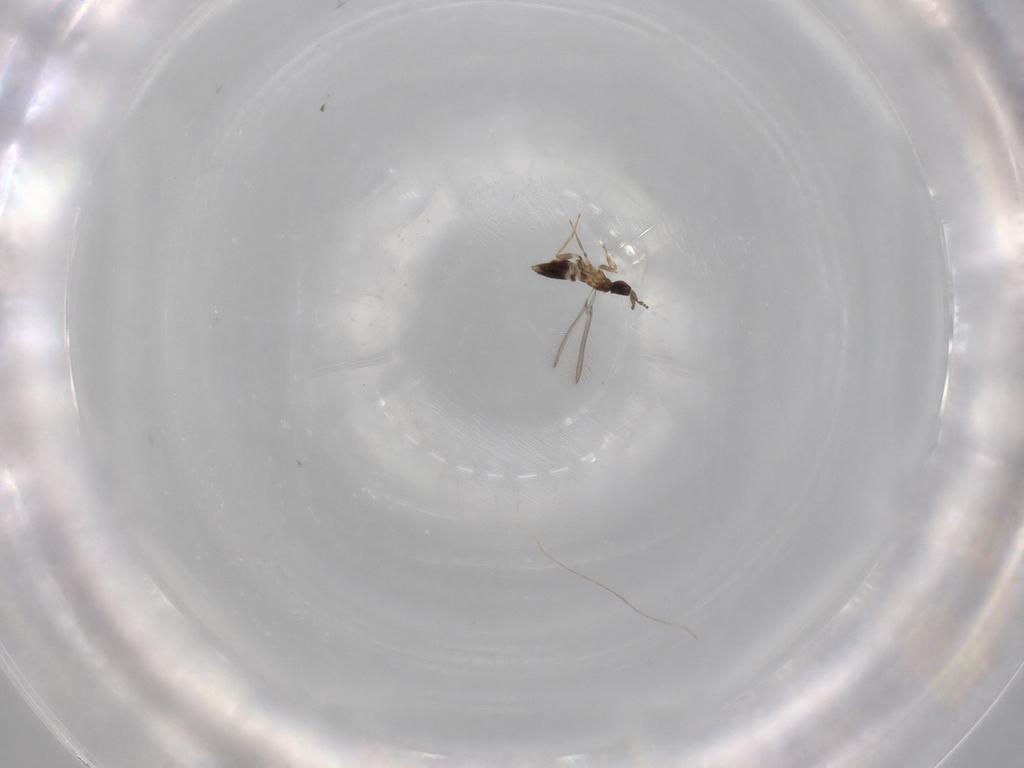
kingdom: Animalia
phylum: Arthropoda
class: Insecta
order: Hymenoptera
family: Mymaridae
